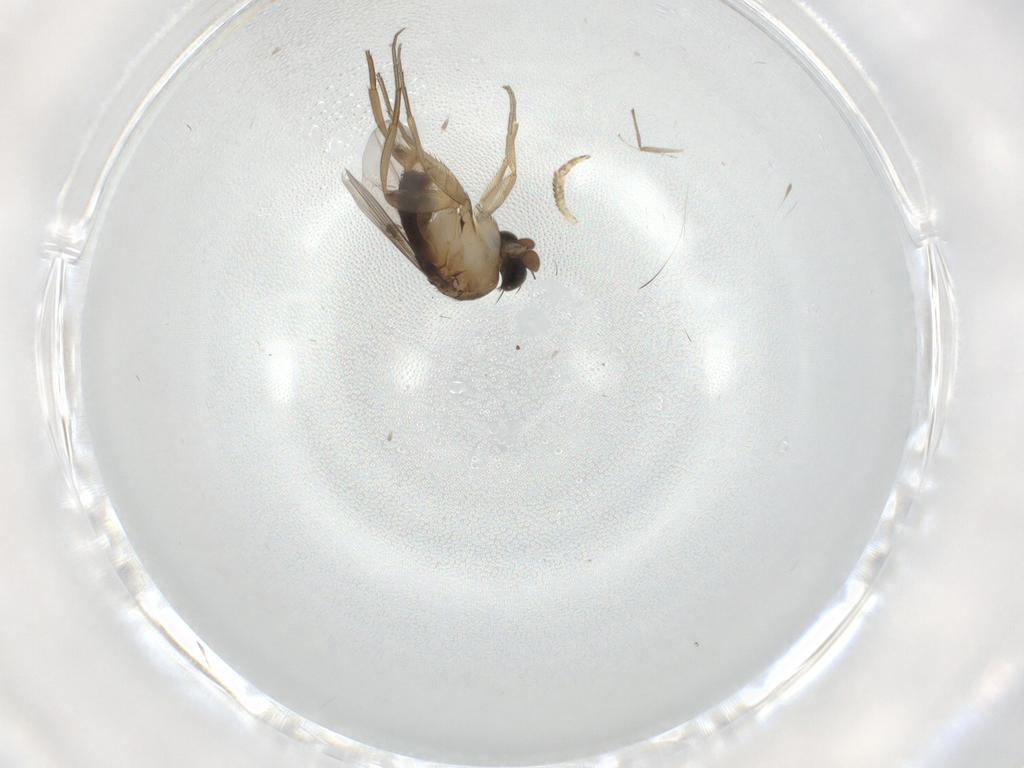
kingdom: Animalia
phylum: Arthropoda
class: Insecta
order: Diptera
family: Phoridae
